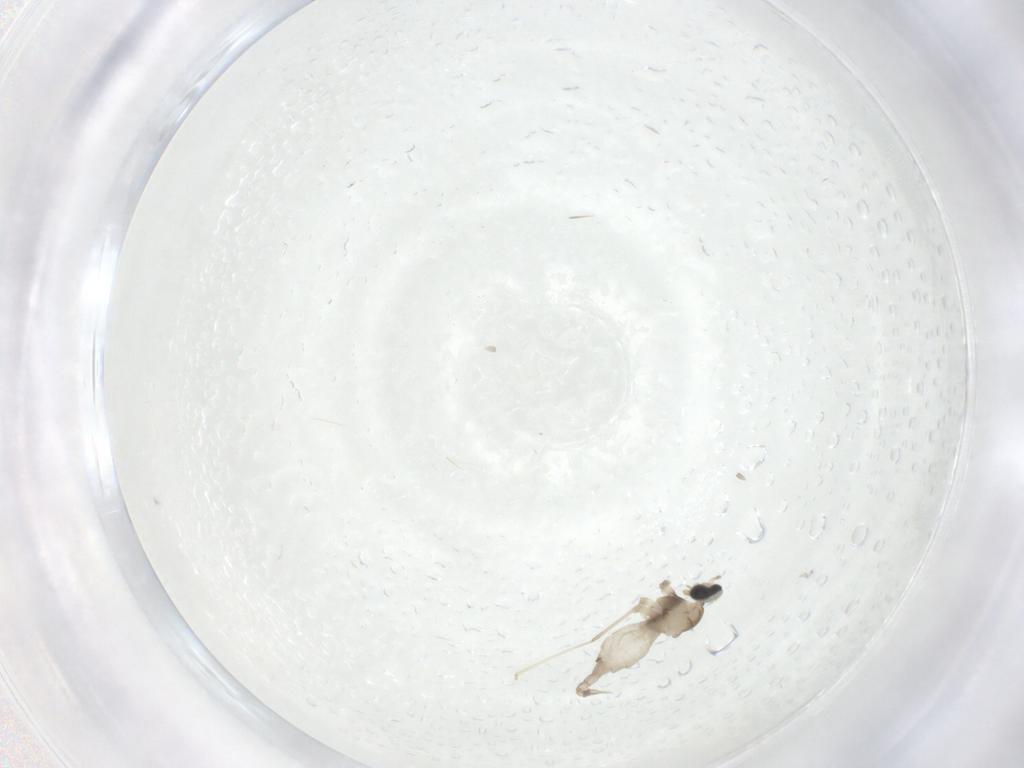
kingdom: Animalia
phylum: Arthropoda
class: Insecta
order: Diptera
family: Cecidomyiidae
